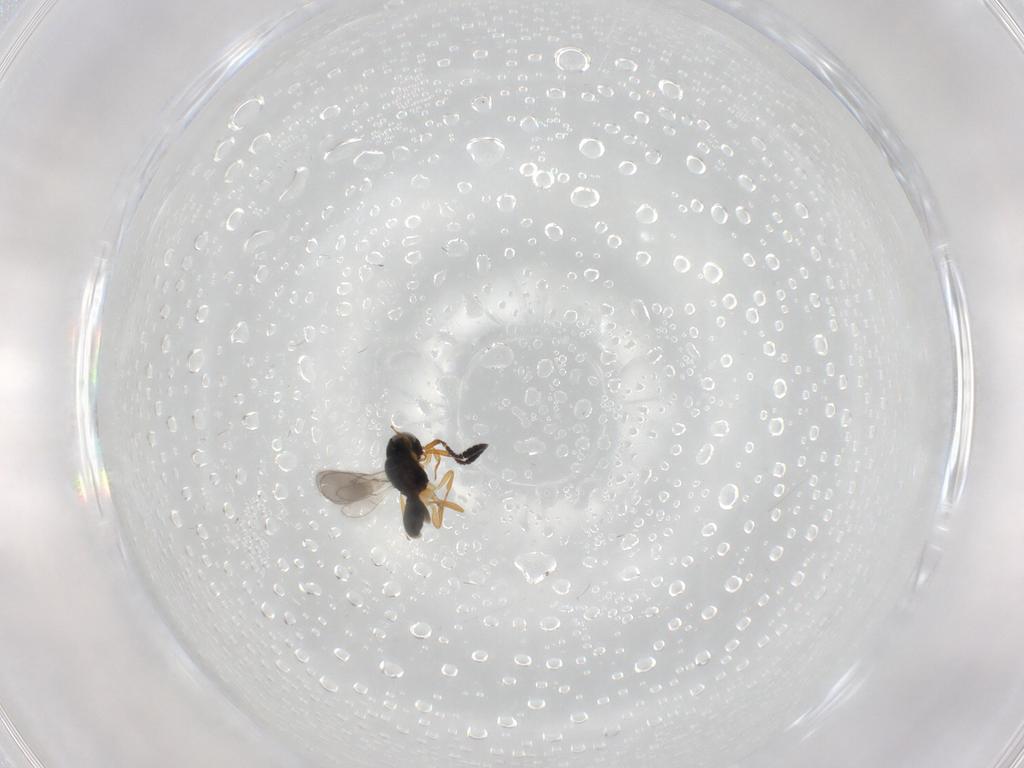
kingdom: Animalia
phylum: Arthropoda
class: Insecta
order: Hymenoptera
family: Scelionidae
